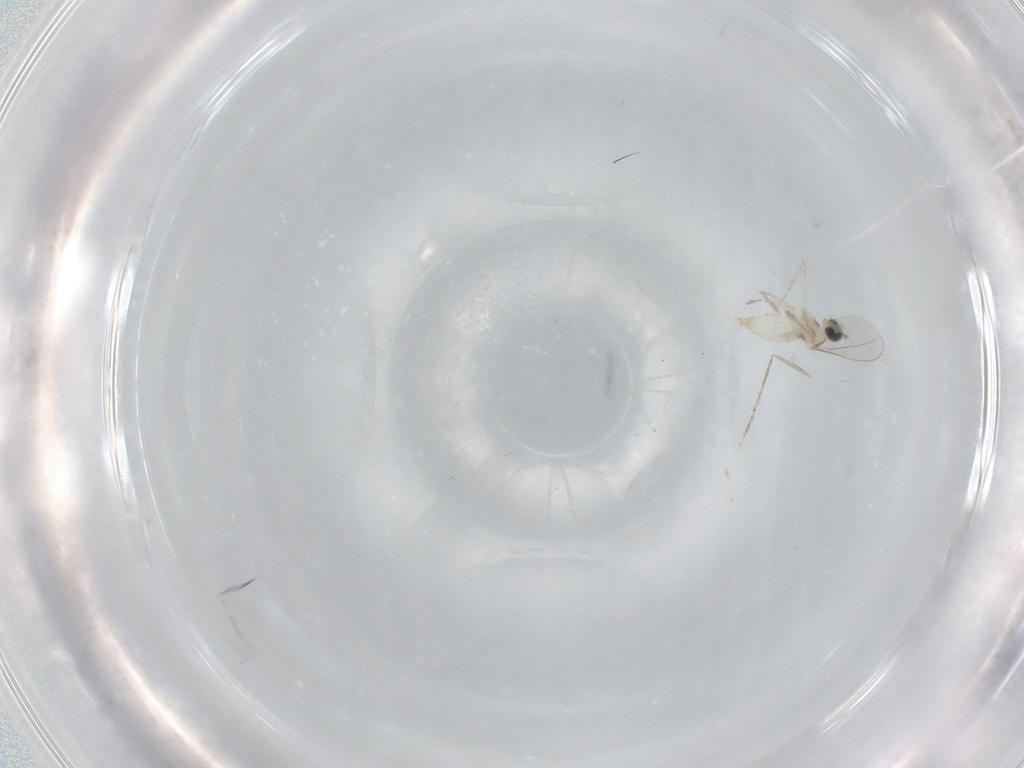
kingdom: Animalia
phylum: Arthropoda
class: Insecta
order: Diptera
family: Cecidomyiidae
